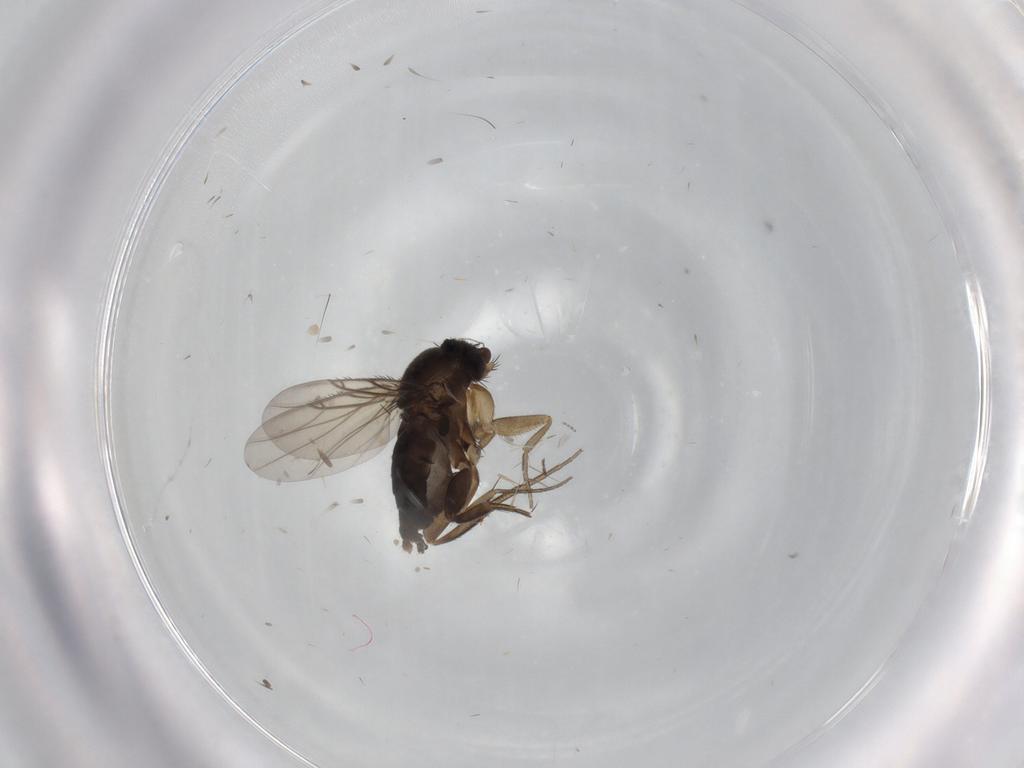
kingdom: Animalia
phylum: Arthropoda
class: Insecta
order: Diptera
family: Phoridae
